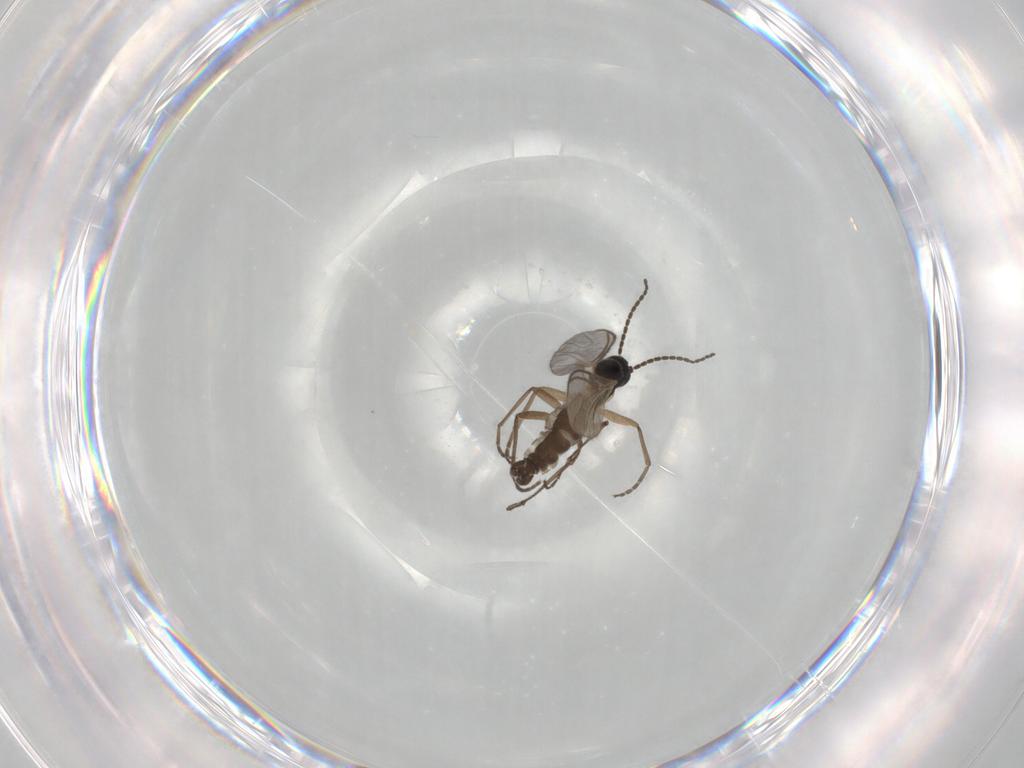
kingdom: Animalia
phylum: Arthropoda
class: Insecta
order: Diptera
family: Sciaridae
